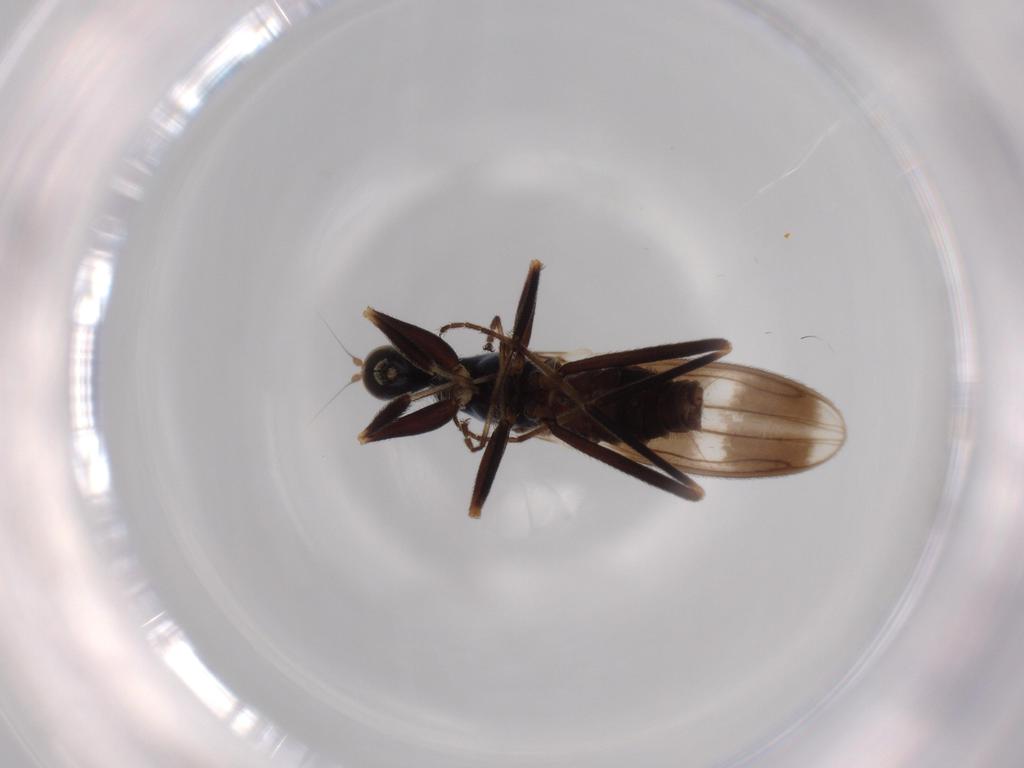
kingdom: Animalia
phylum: Arthropoda
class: Insecta
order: Diptera
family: Hybotidae
